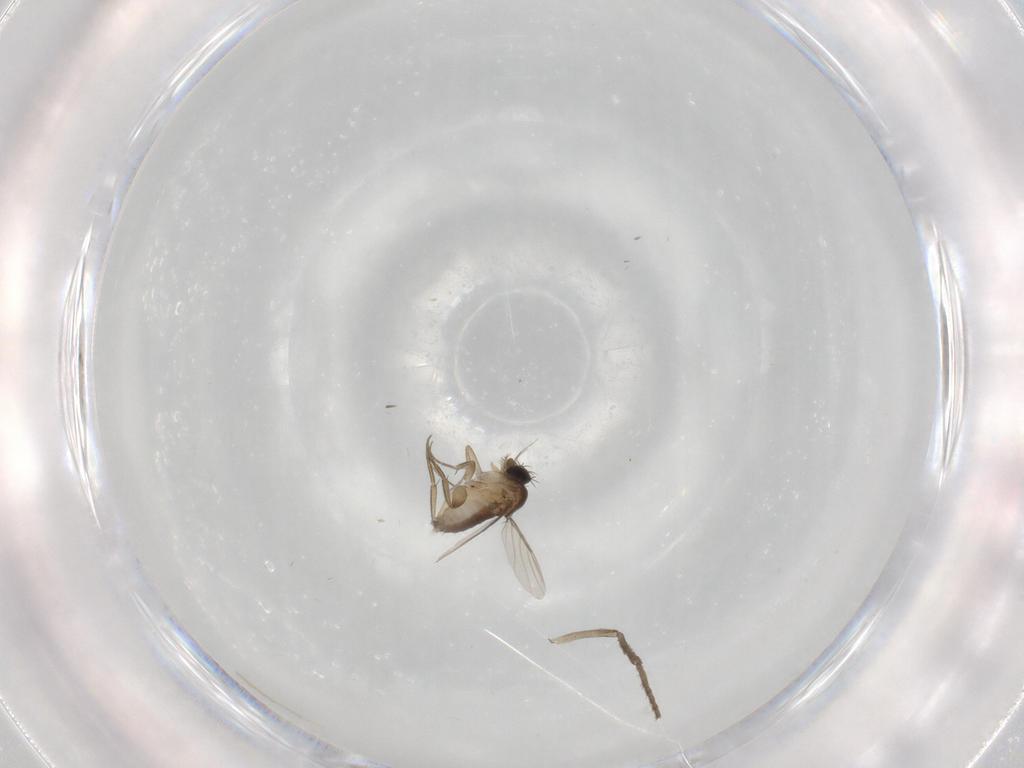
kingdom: Animalia
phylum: Arthropoda
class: Insecta
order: Diptera
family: Psychodidae
